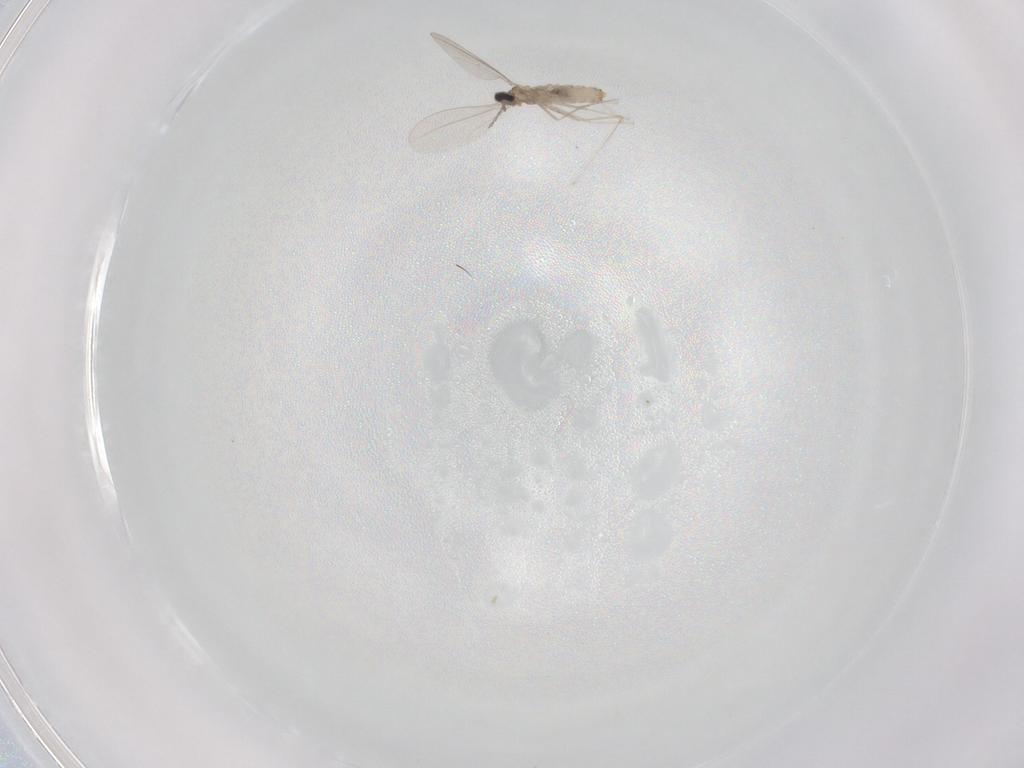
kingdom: Animalia
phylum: Arthropoda
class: Insecta
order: Diptera
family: Cecidomyiidae
